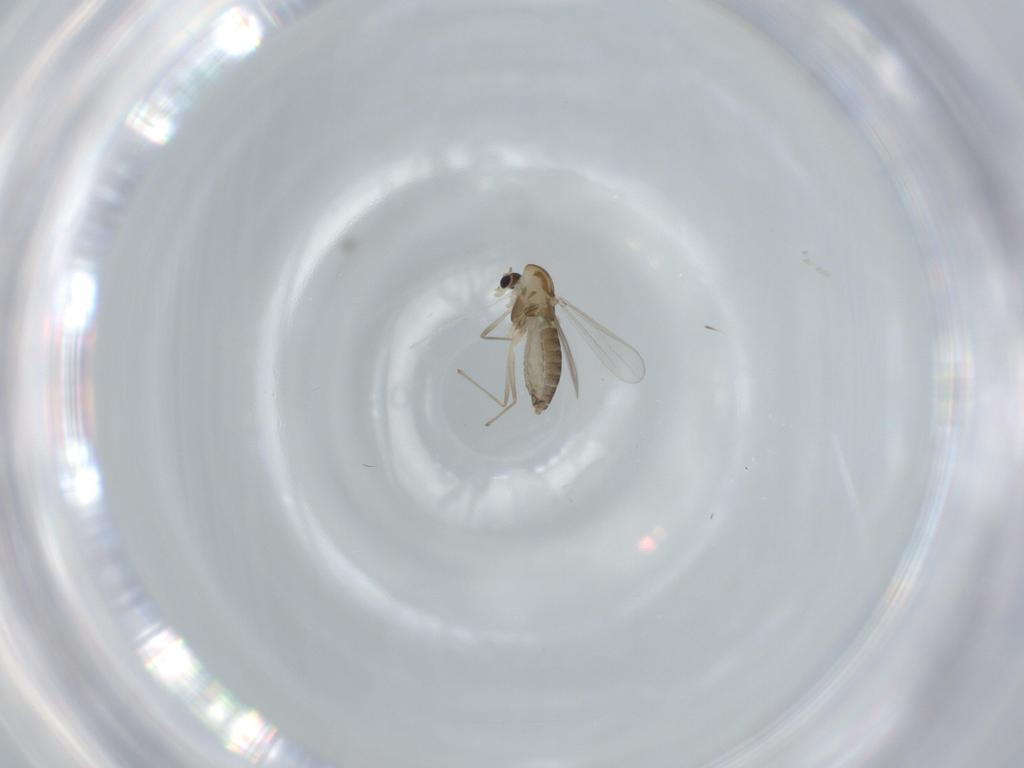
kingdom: Animalia
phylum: Arthropoda
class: Insecta
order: Diptera
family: Chironomidae
